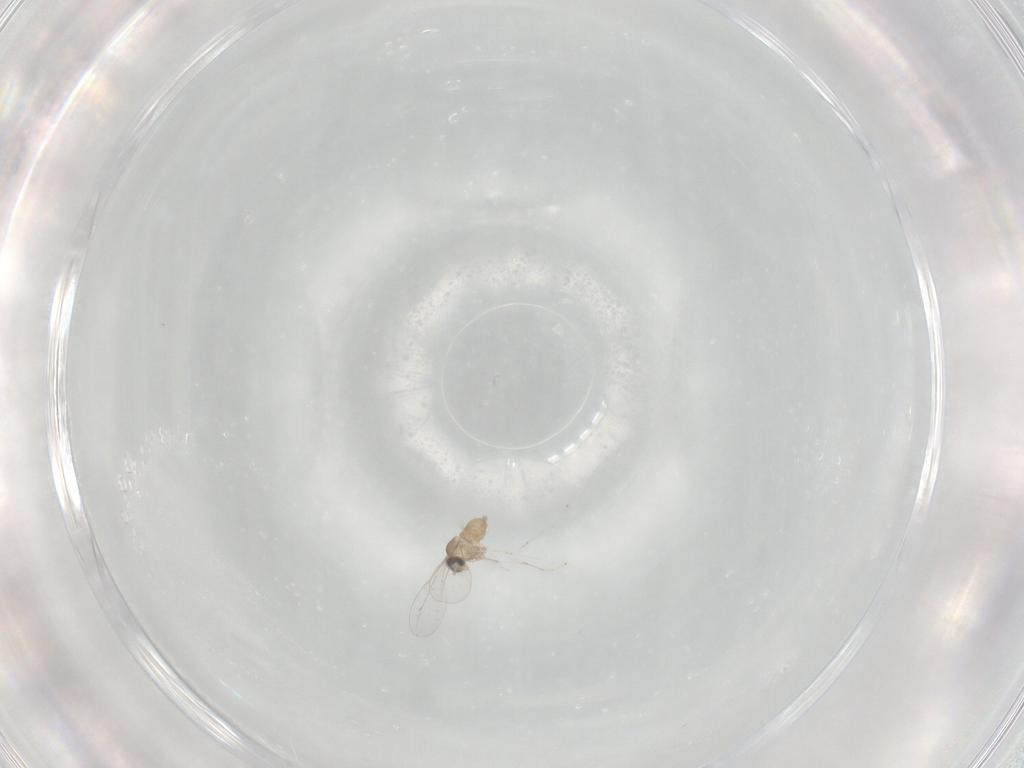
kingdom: Animalia
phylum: Arthropoda
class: Insecta
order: Diptera
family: Cecidomyiidae
